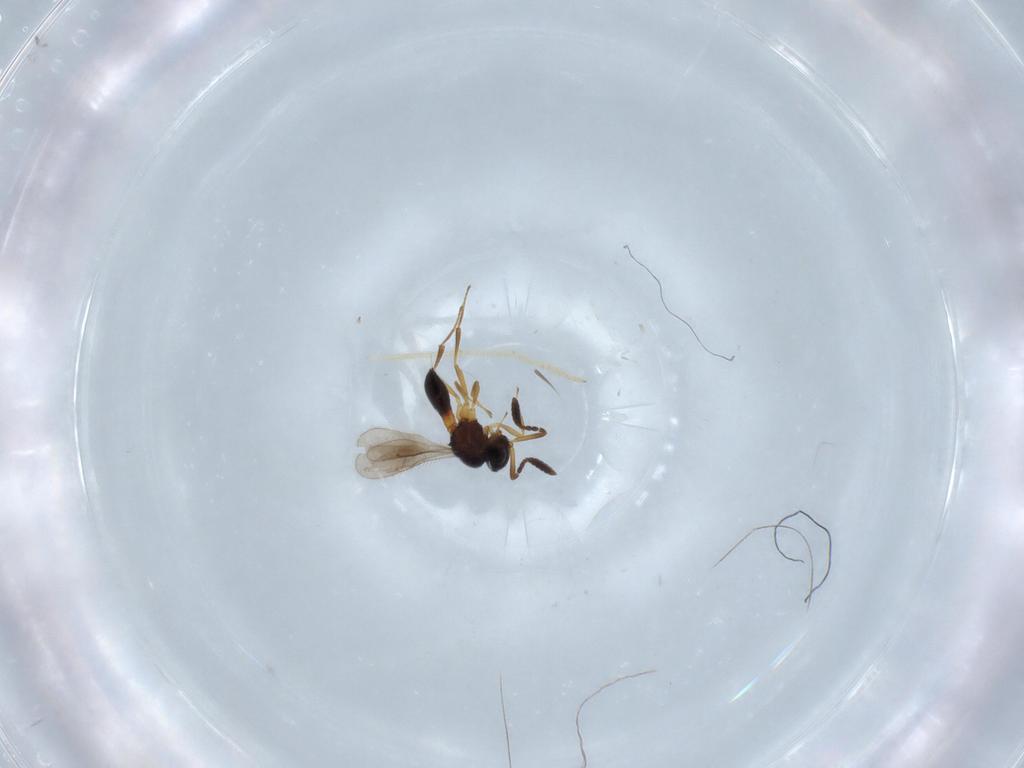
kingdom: Animalia
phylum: Arthropoda
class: Insecta
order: Hymenoptera
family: Scelionidae
